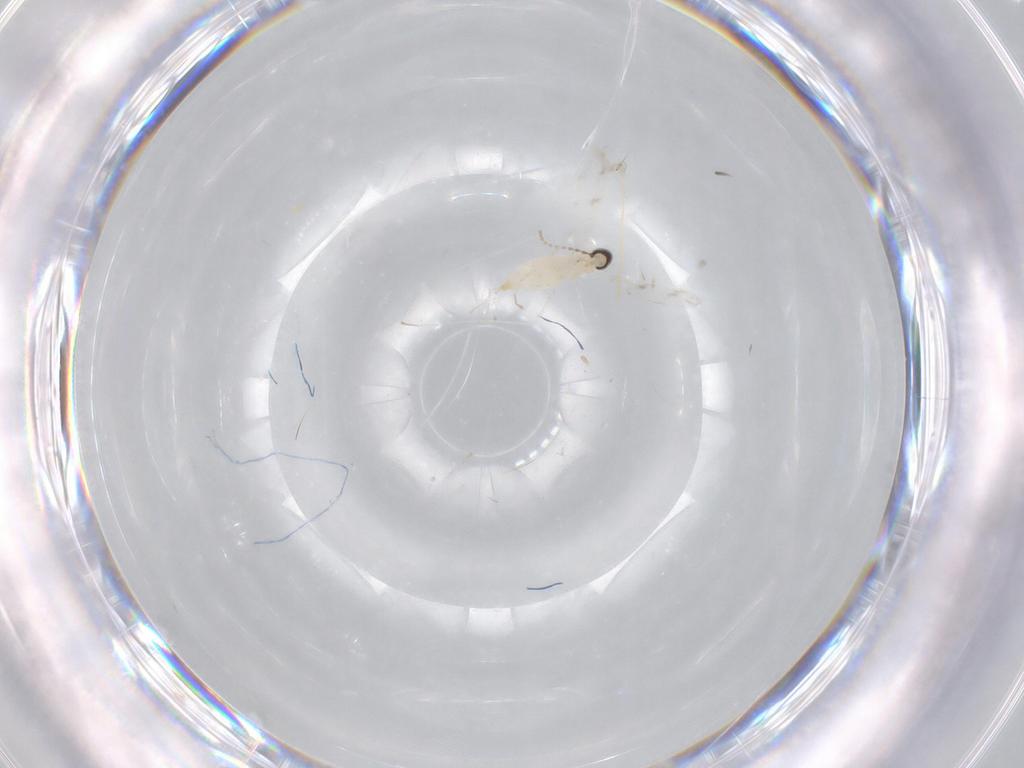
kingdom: Animalia
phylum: Arthropoda
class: Insecta
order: Diptera
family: Cecidomyiidae
